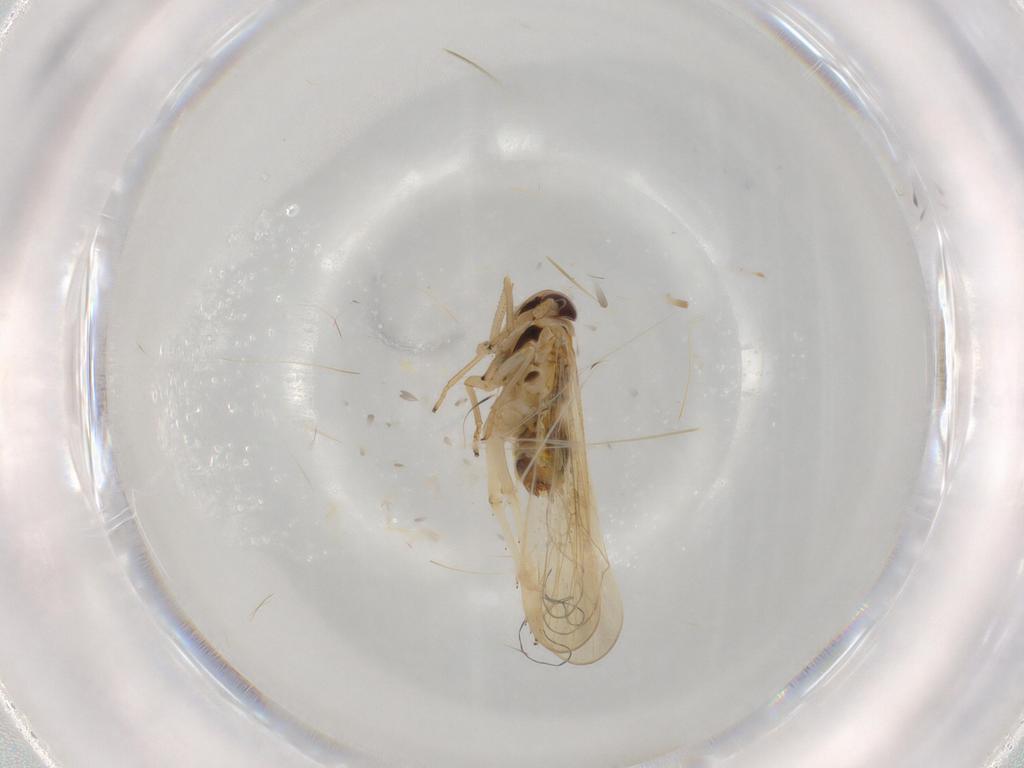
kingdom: Animalia
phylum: Arthropoda
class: Insecta
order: Hemiptera
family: Delphacidae
